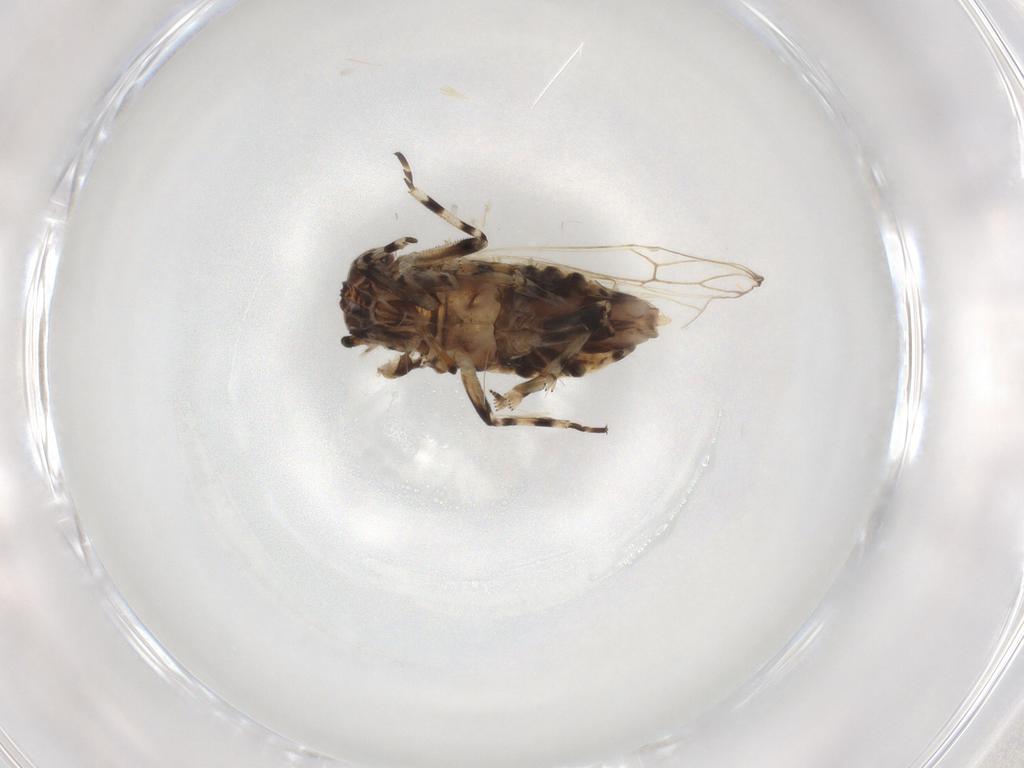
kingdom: Animalia
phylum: Arthropoda
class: Insecta
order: Hemiptera
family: Delphacidae
